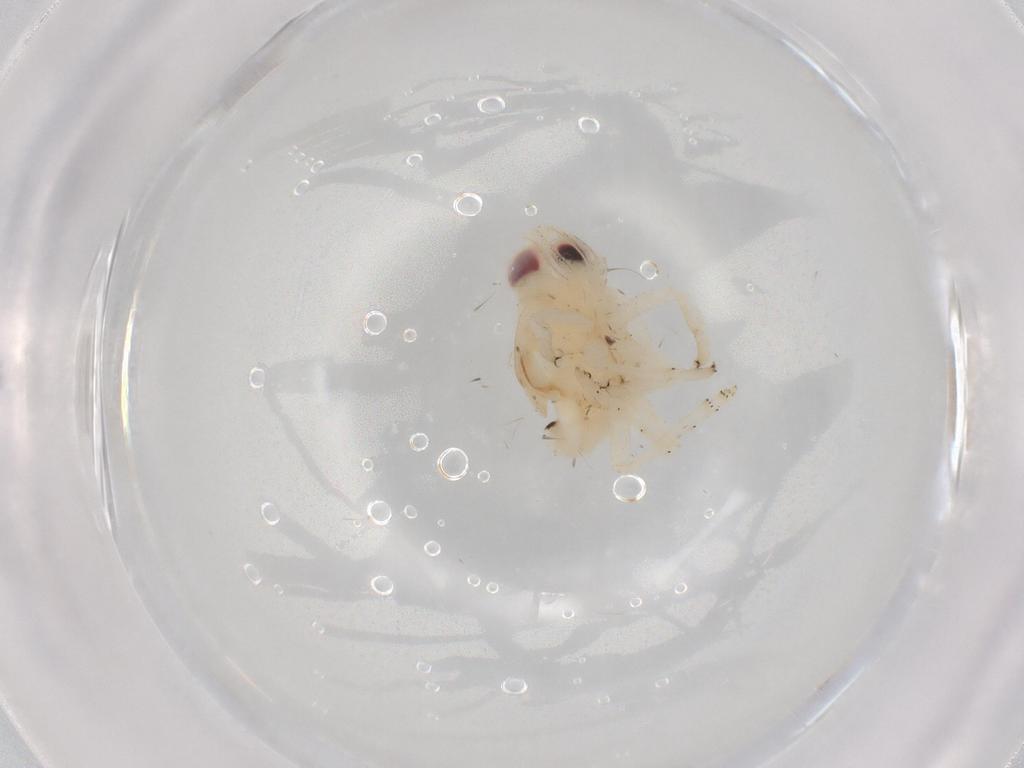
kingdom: Animalia
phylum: Arthropoda
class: Insecta
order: Hemiptera
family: Nogodinidae
